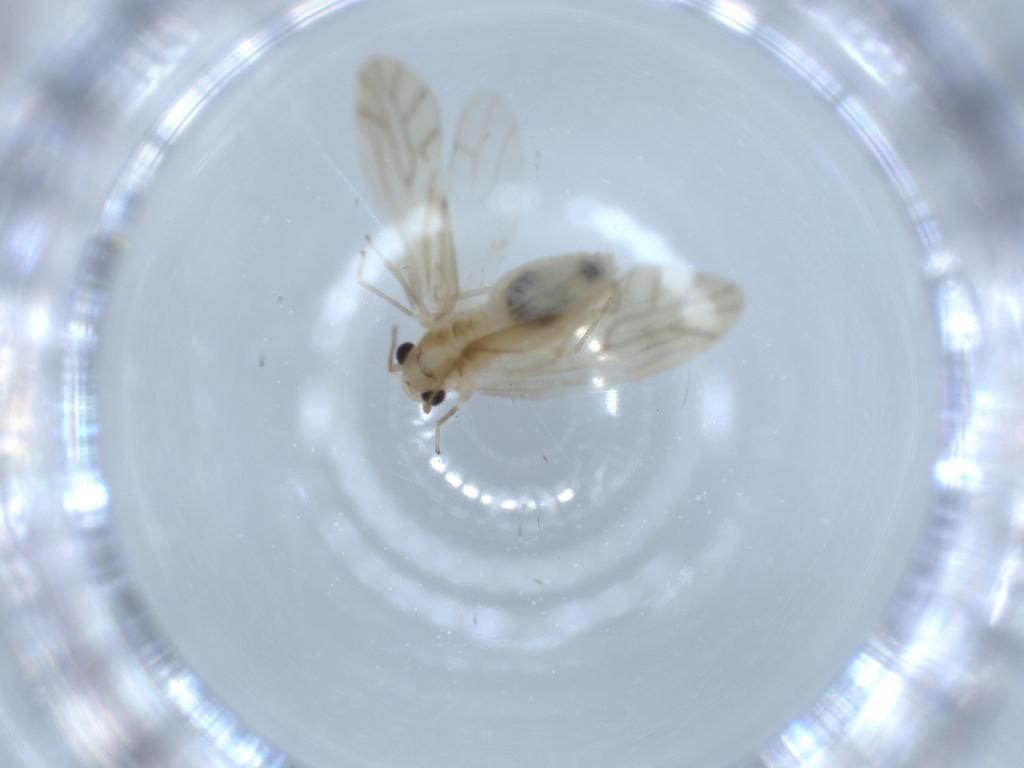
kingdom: Animalia
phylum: Arthropoda
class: Insecta
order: Psocodea
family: Caeciliusidae
